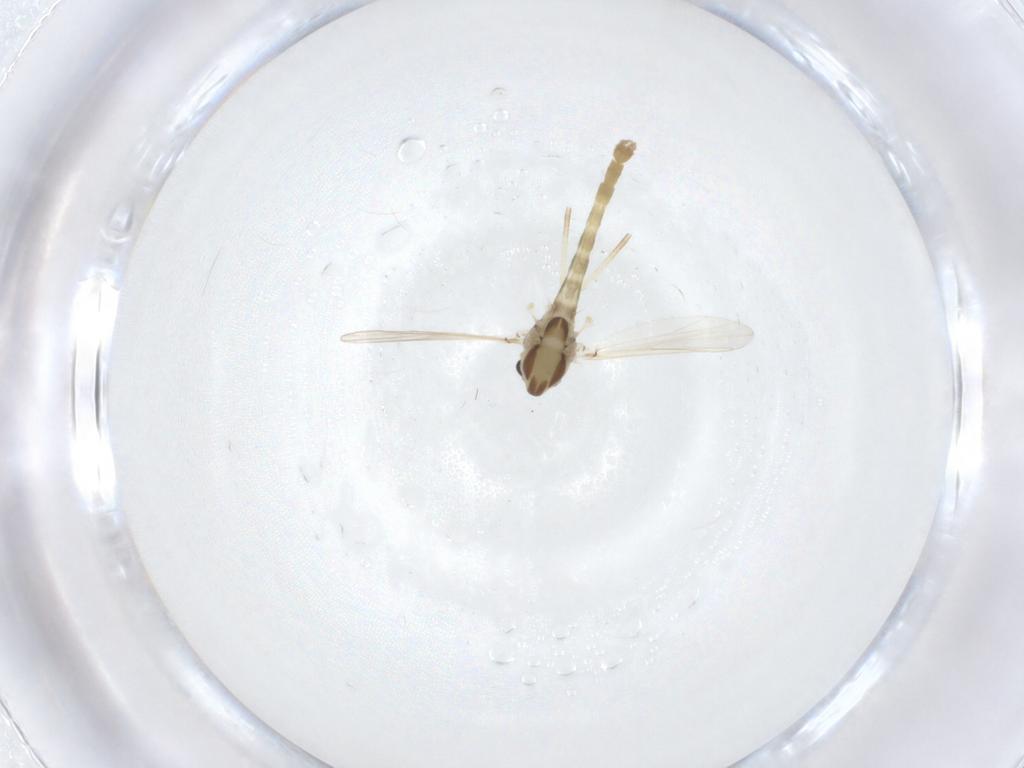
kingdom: Animalia
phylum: Arthropoda
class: Insecta
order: Diptera
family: Chironomidae
